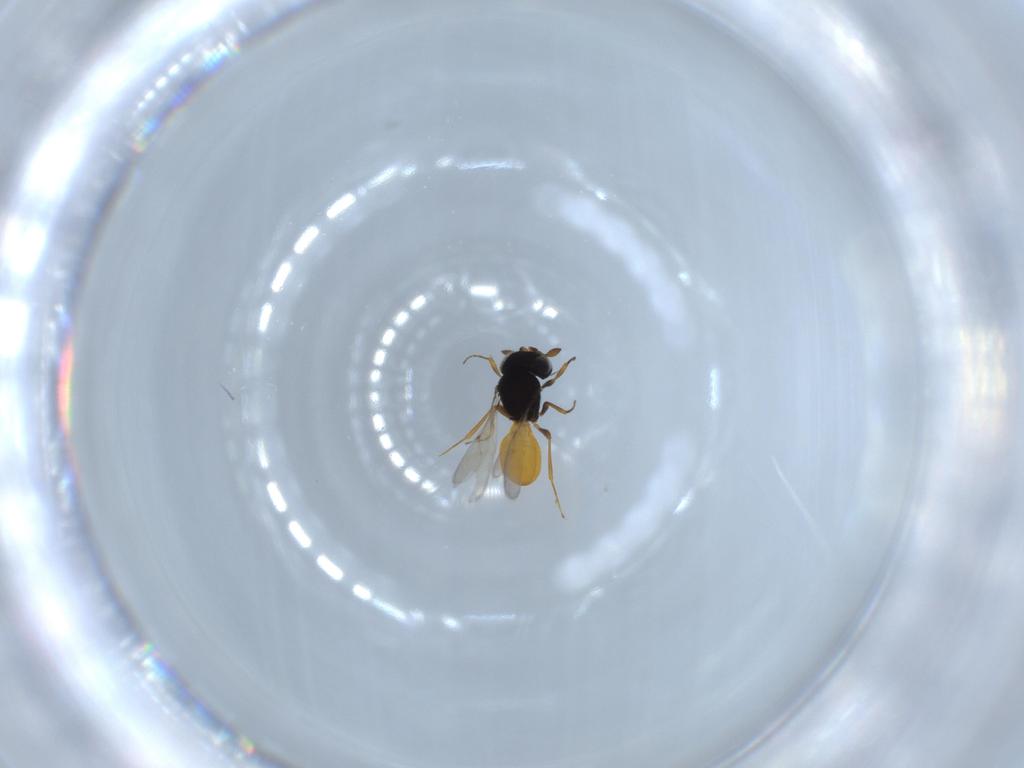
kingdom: Animalia
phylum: Arthropoda
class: Insecta
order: Hymenoptera
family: Scelionidae
